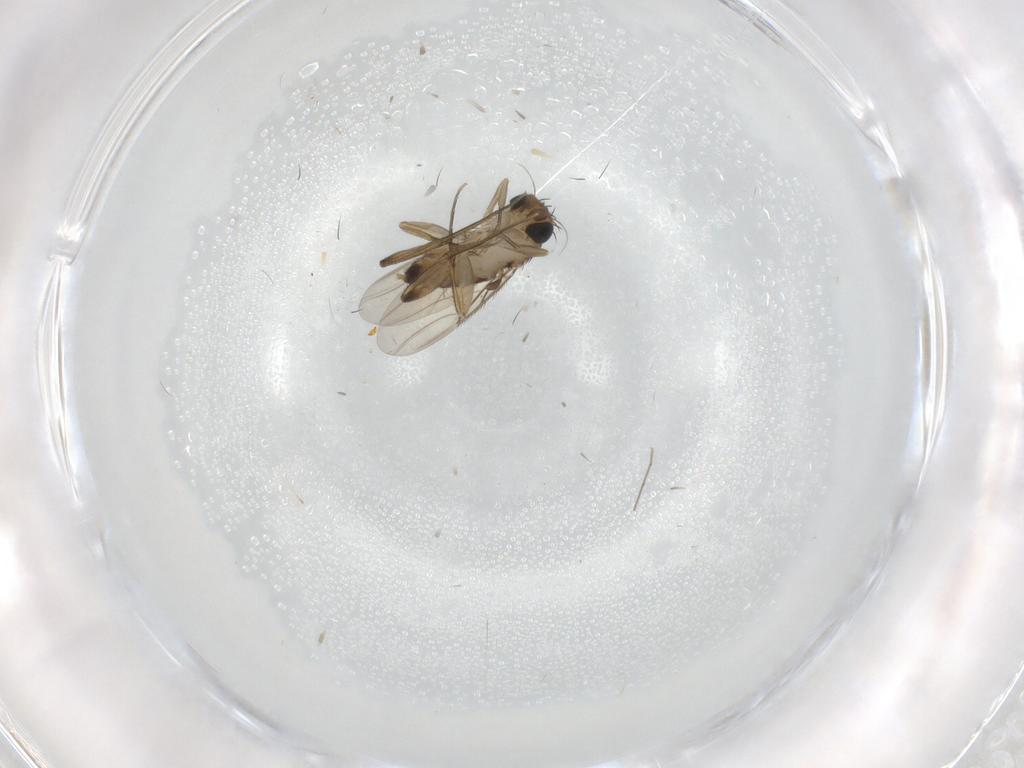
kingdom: Animalia
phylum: Arthropoda
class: Insecta
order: Diptera
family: Phoridae
